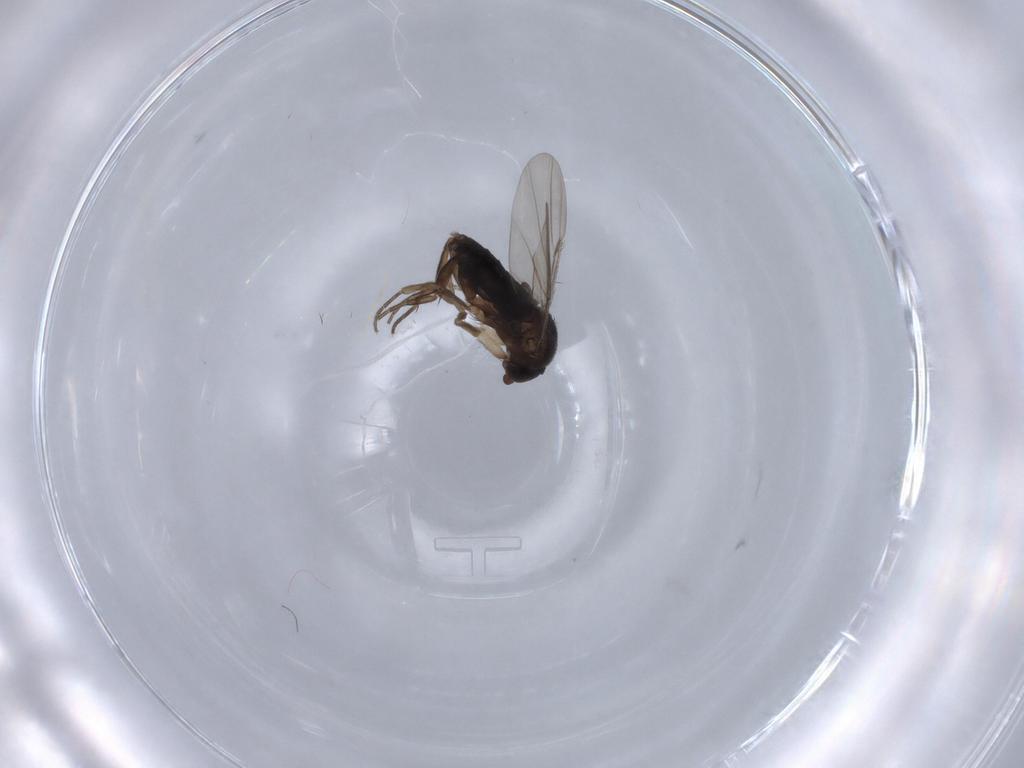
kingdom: Animalia
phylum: Arthropoda
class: Insecta
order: Diptera
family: Phoridae
